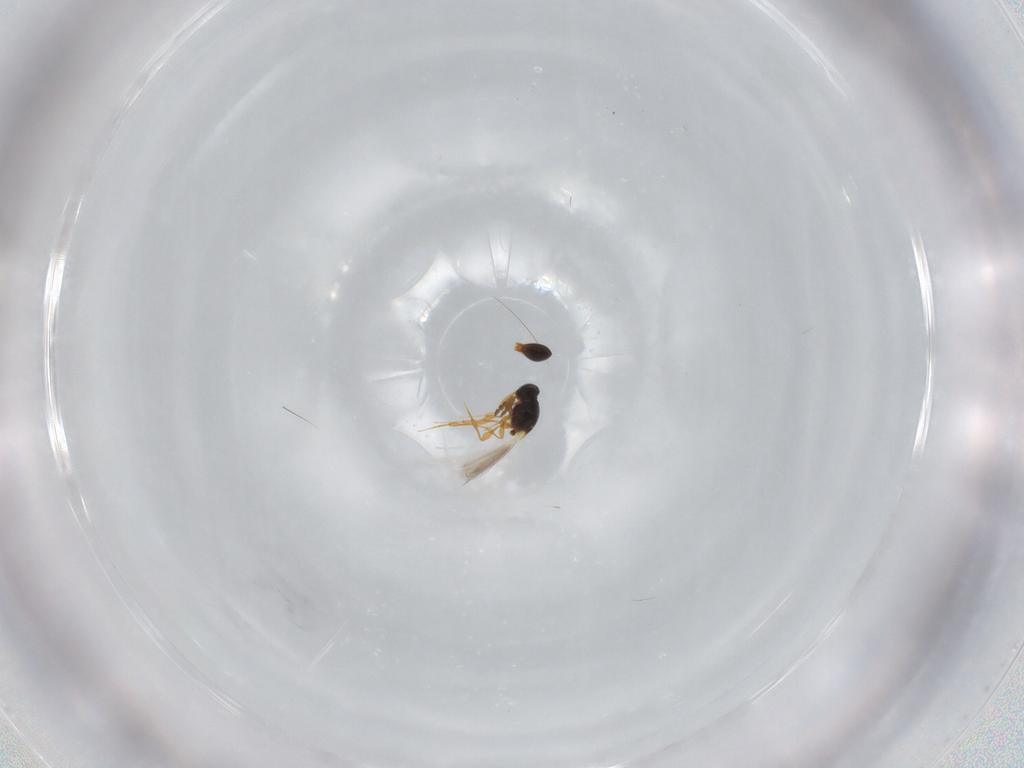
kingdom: Animalia
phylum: Arthropoda
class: Insecta
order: Hymenoptera
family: Platygastridae
